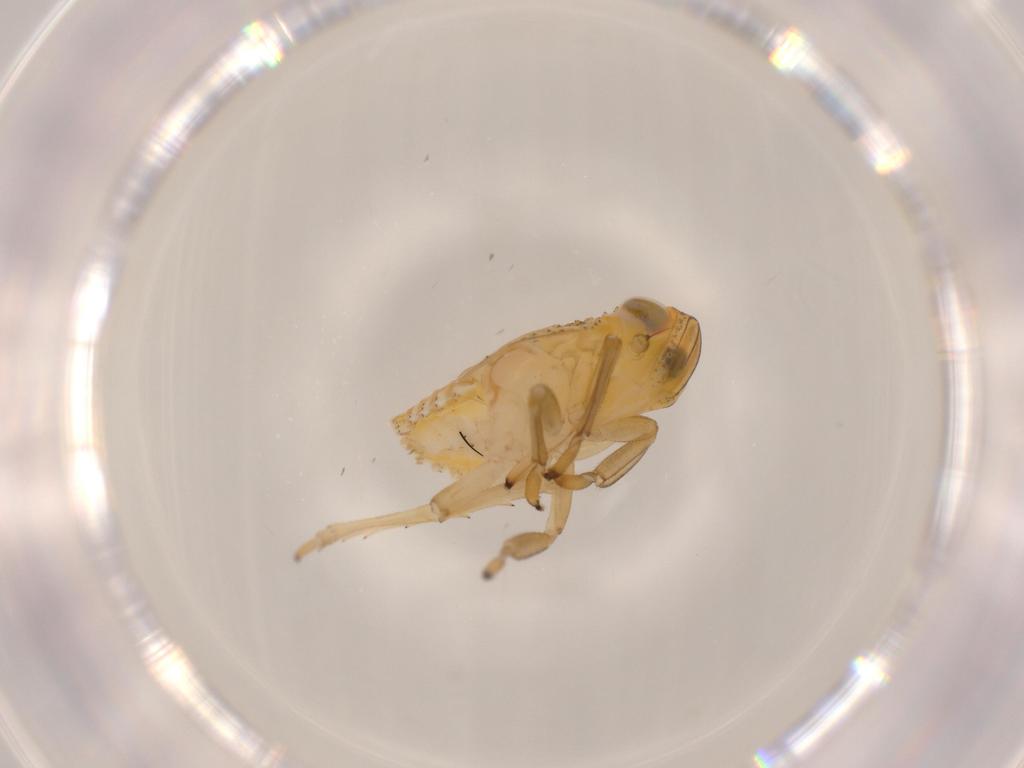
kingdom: Animalia
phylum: Arthropoda
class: Insecta
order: Hemiptera
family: Issidae
